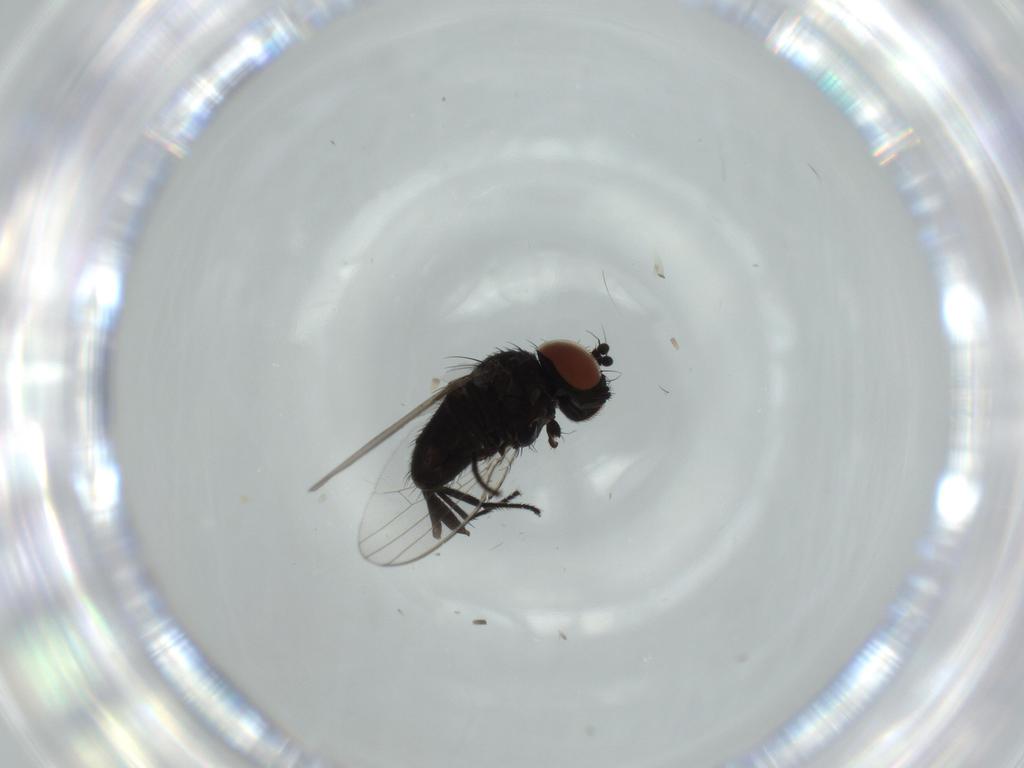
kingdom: Animalia
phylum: Arthropoda
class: Insecta
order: Diptera
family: Milichiidae
